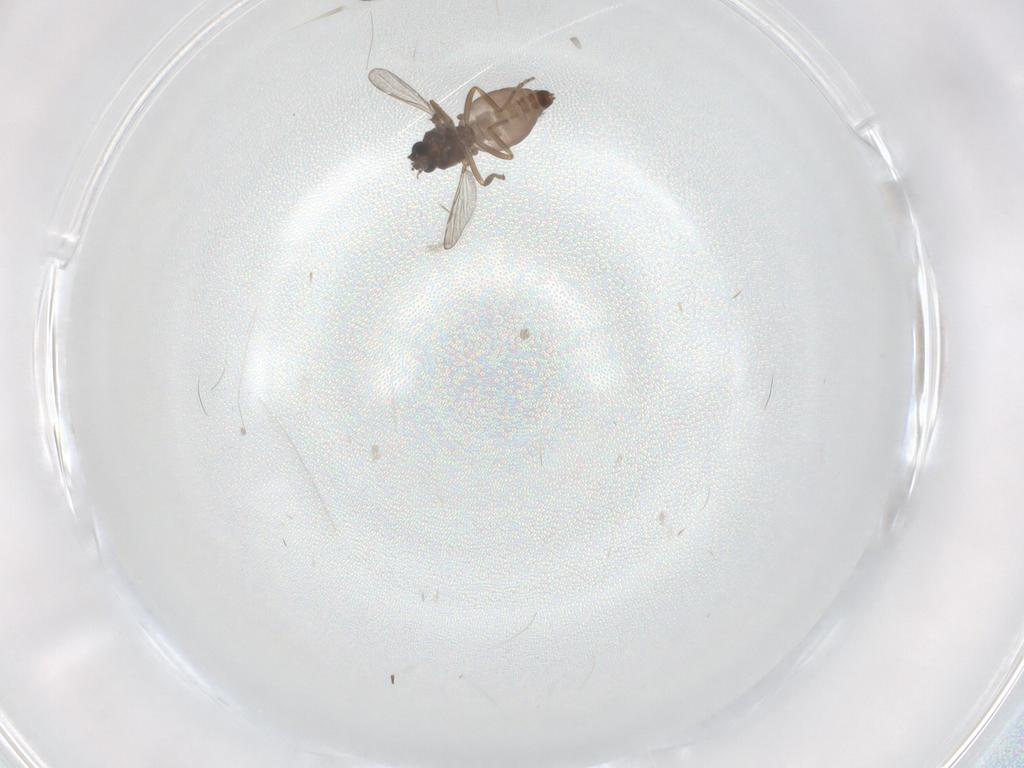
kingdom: Animalia
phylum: Arthropoda
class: Insecta
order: Diptera
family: Ceratopogonidae
